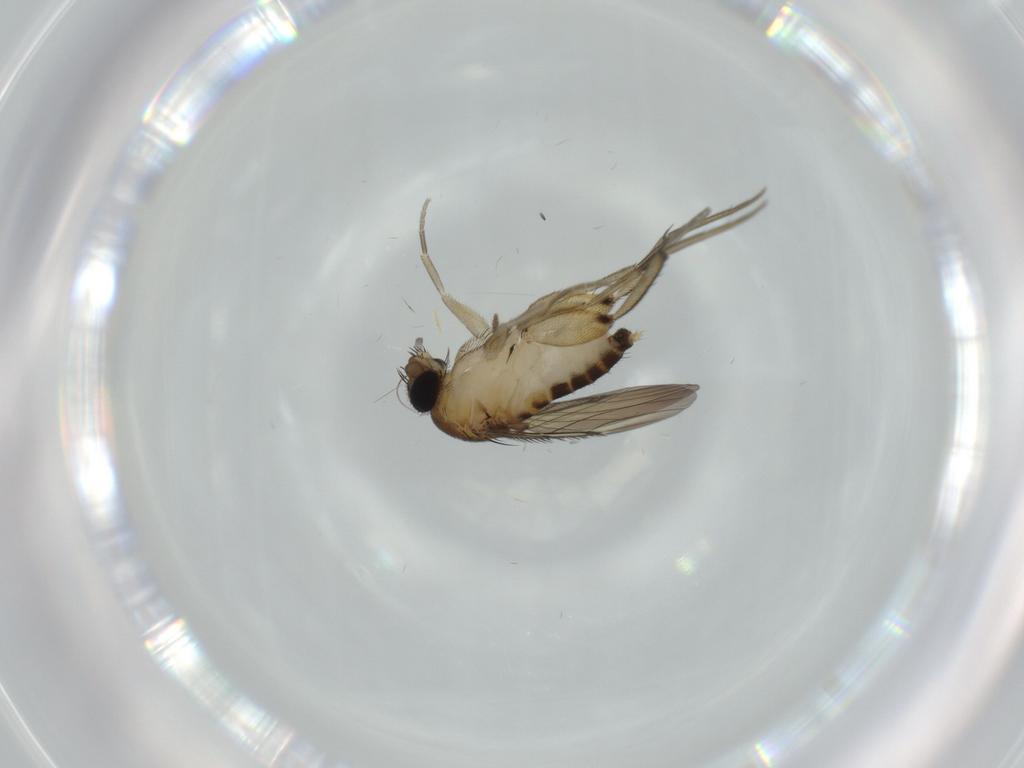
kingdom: Animalia
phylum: Arthropoda
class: Insecta
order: Diptera
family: Phoridae
